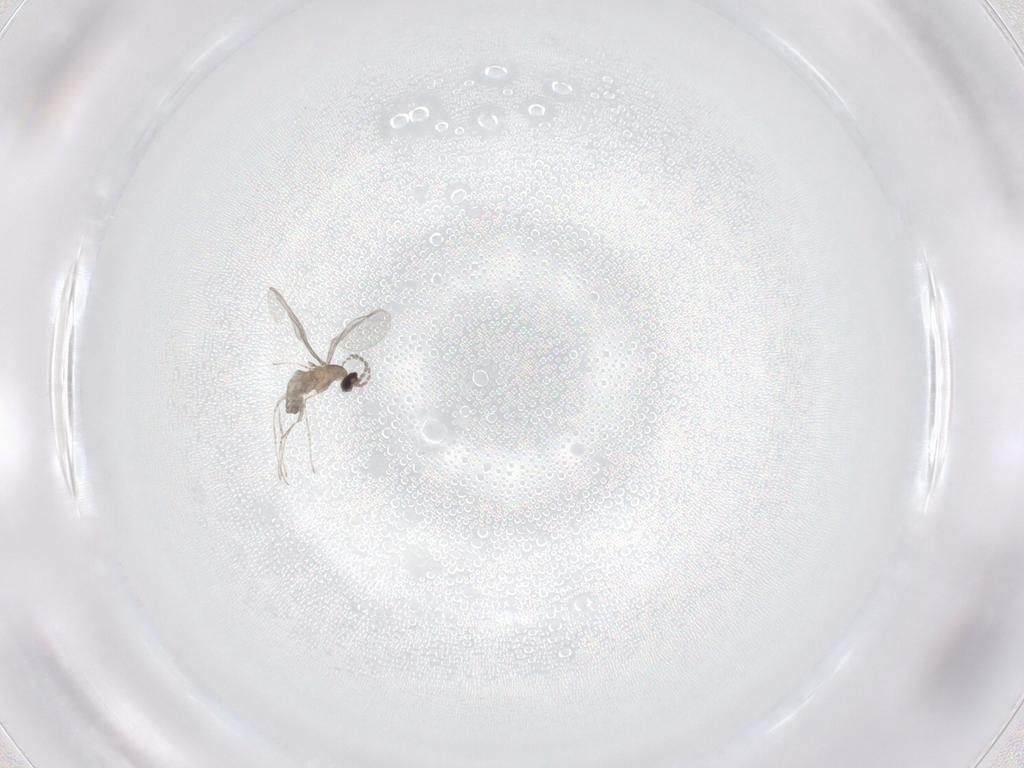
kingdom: Animalia
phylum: Arthropoda
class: Insecta
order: Diptera
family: Cecidomyiidae
